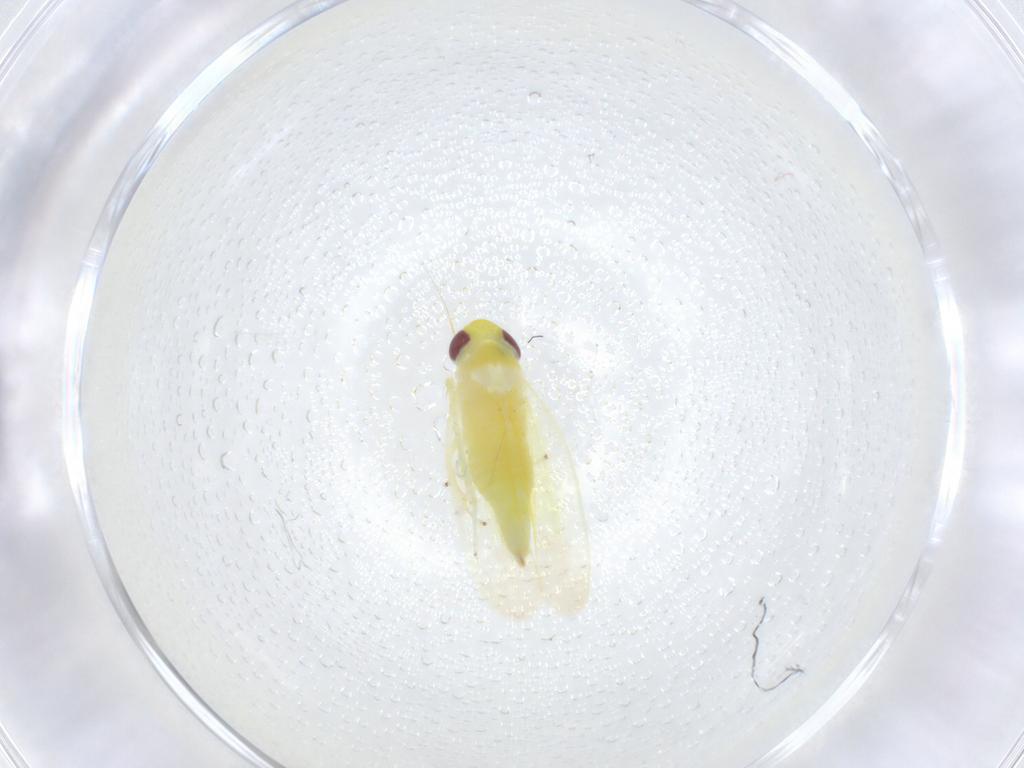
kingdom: Animalia
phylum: Arthropoda
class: Insecta
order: Hemiptera
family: Cicadellidae
